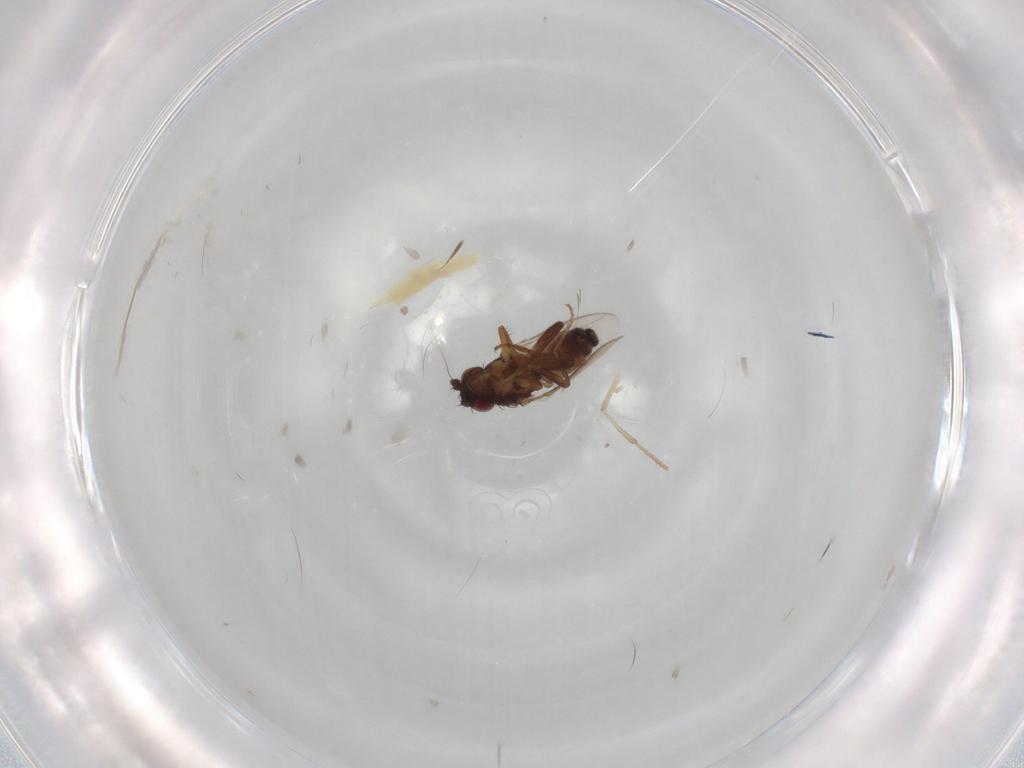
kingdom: Animalia
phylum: Arthropoda
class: Insecta
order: Diptera
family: Sphaeroceridae
